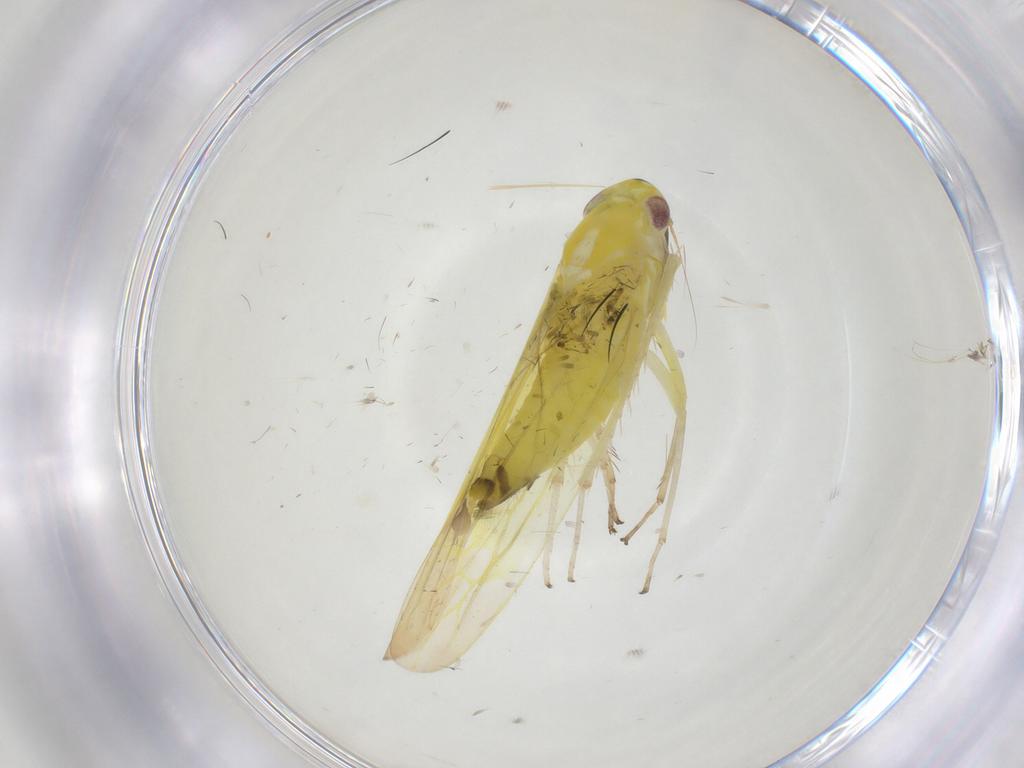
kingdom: Animalia
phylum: Arthropoda
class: Insecta
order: Hemiptera
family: Cicadellidae
